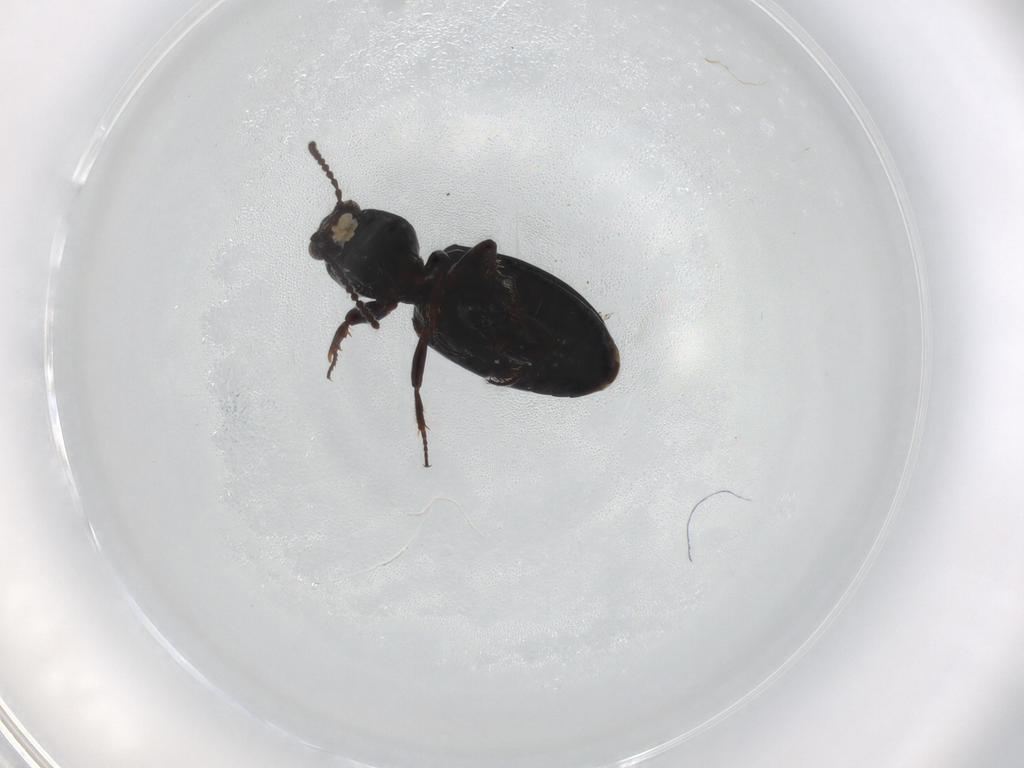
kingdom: Animalia
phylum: Arthropoda
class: Insecta
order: Coleoptera
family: Carabidae
